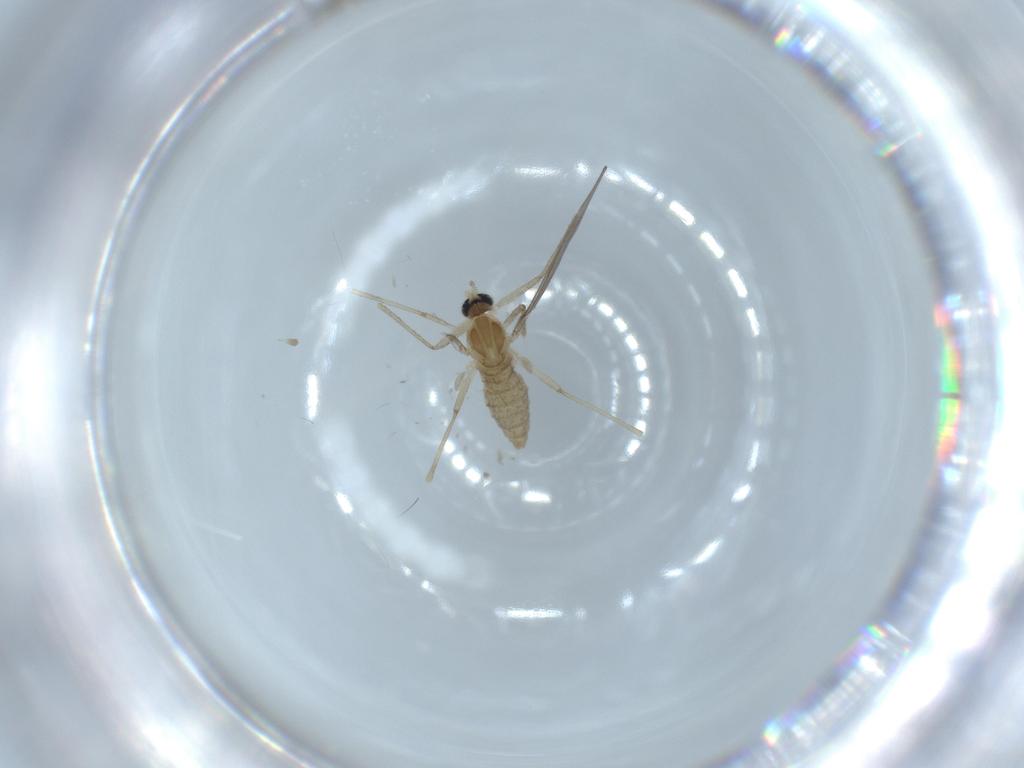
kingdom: Animalia
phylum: Arthropoda
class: Insecta
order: Diptera
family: Cecidomyiidae
